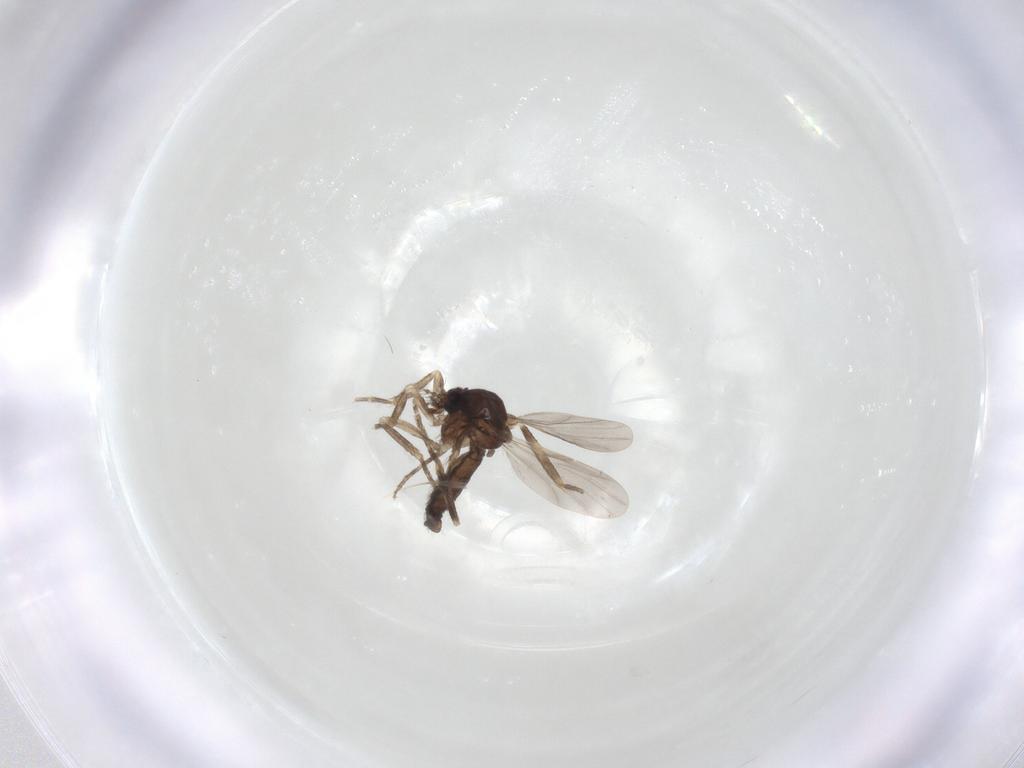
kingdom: Animalia
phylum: Arthropoda
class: Insecta
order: Diptera
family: Ceratopogonidae
